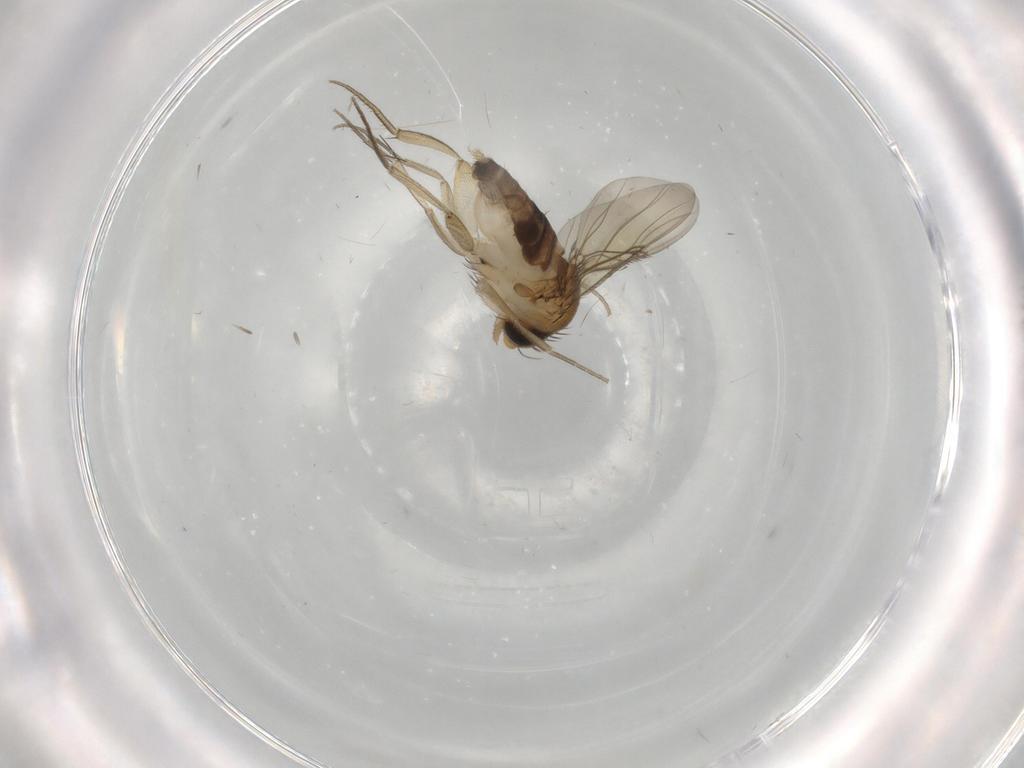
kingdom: Animalia
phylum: Arthropoda
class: Insecta
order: Diptera
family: Phoridae
